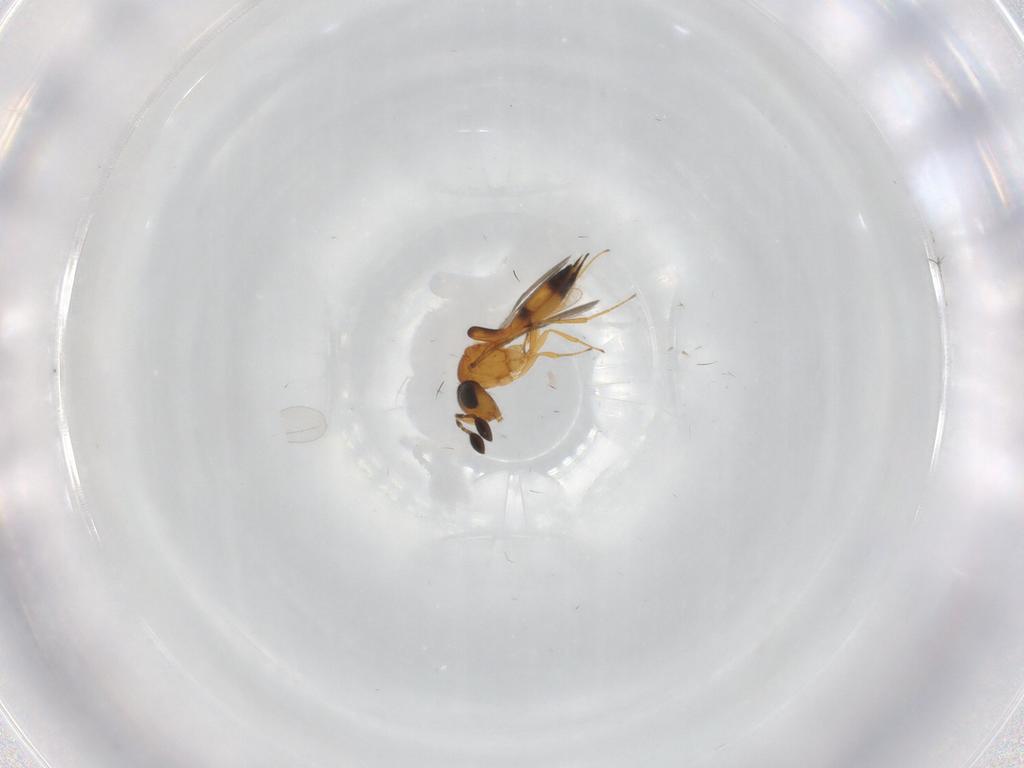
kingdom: Animalia
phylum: Arthropoda
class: Insecta
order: Hymenoptera
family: Scelionidae
